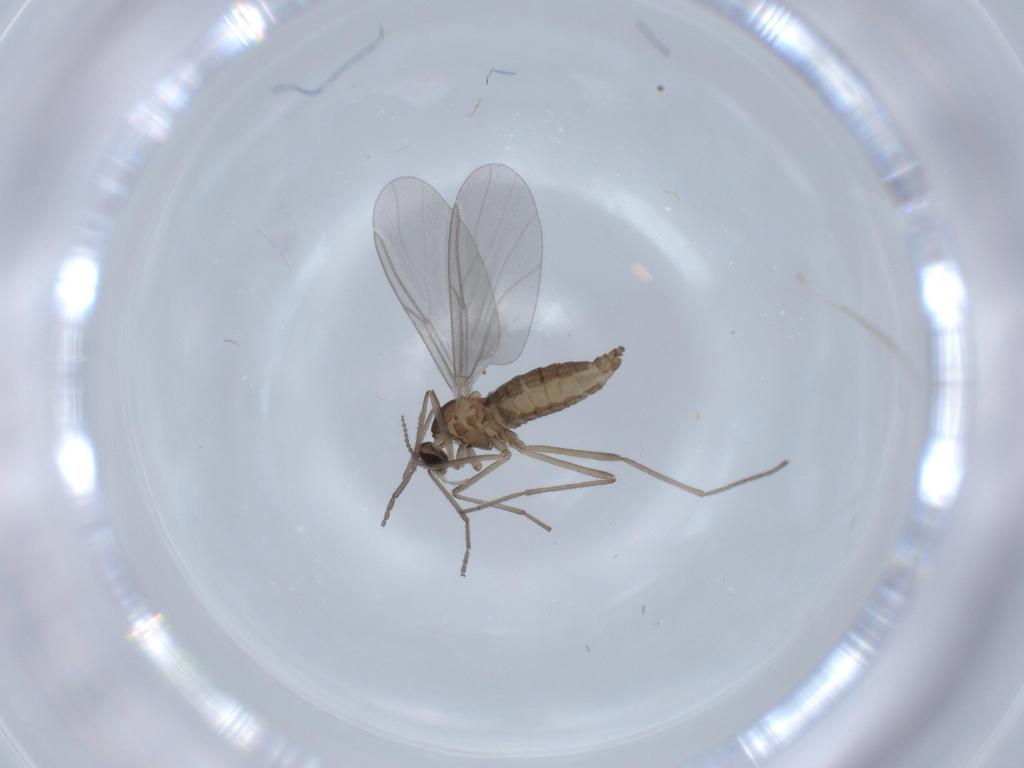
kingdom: Animalia
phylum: Arthropoda
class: Insecta
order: Diptera
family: Cecidomyiidae
